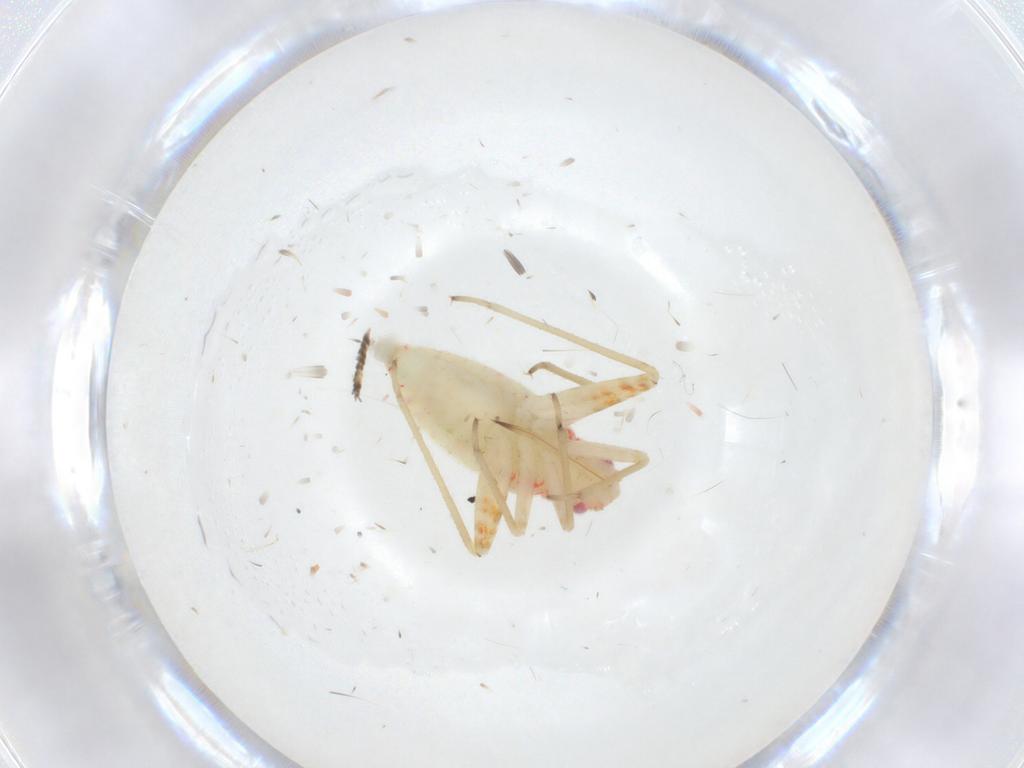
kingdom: Animalia
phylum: Arthropoda
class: Insecta
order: Hemiptera
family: Miridae
